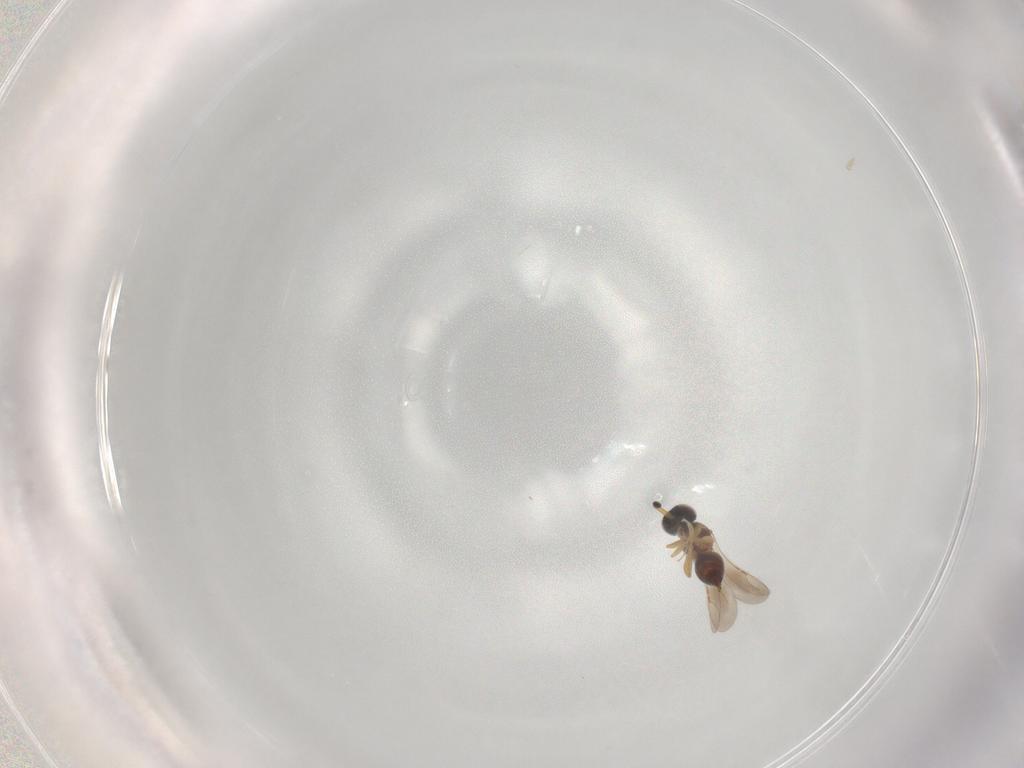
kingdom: Animalia
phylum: Arthropoda
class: Insecta
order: Hymenoptera
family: Ceraphronidae
